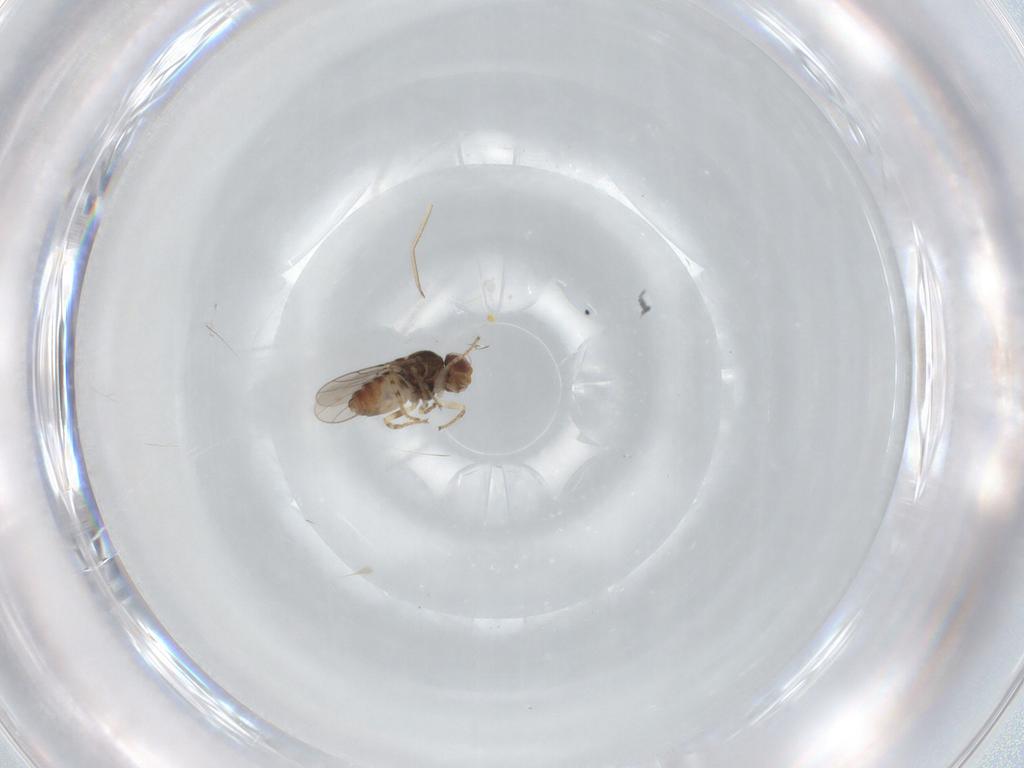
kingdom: Animalia
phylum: Arthropoda
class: Insecta
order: Diptera
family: Chloropidae
